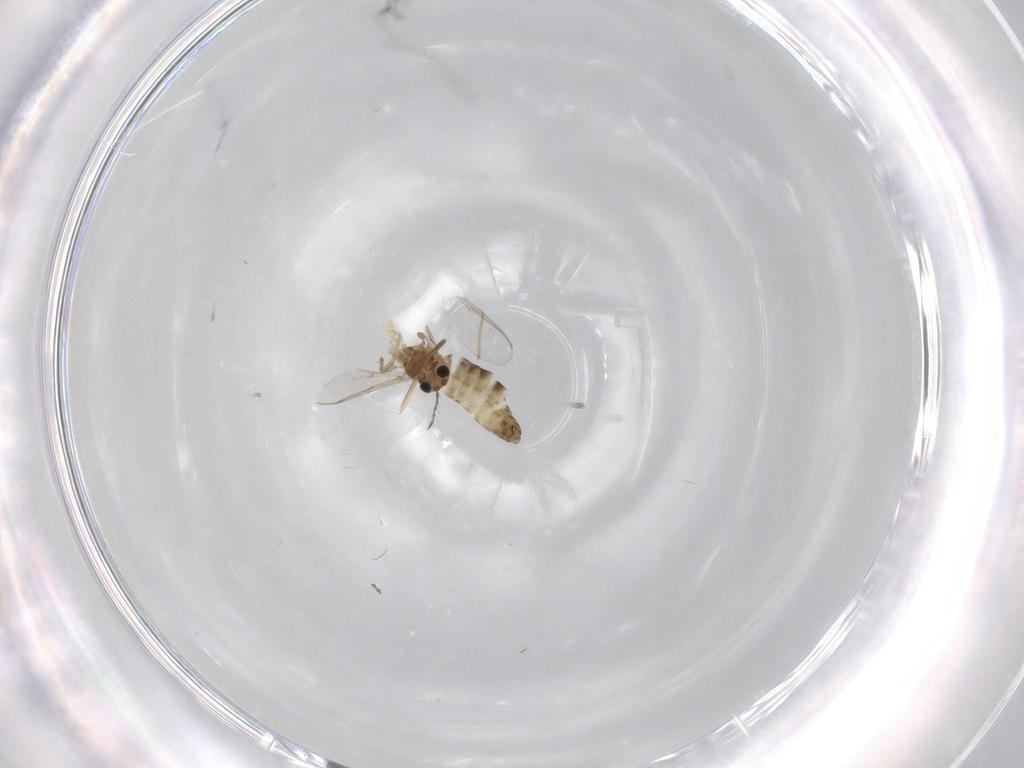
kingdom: Animalia
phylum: Arthropoda
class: Insecta
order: Diptera
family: Chironomidae
